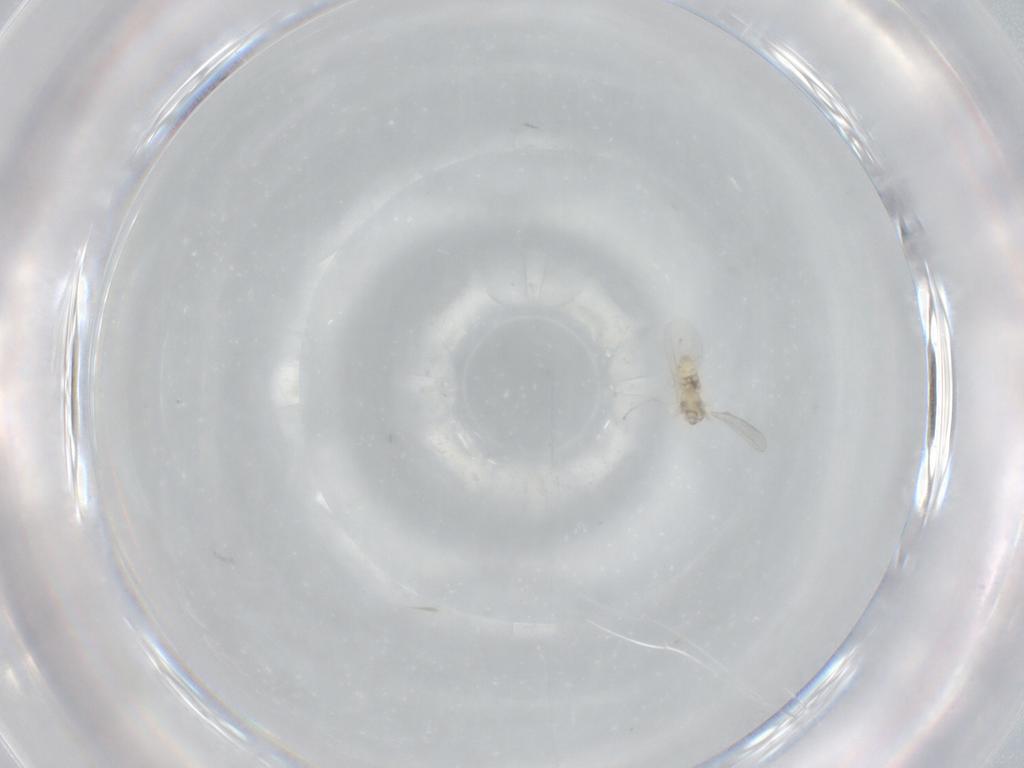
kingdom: Animalia
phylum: Arthropoda
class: Insecta
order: Diptera
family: Cecidomyiidae
